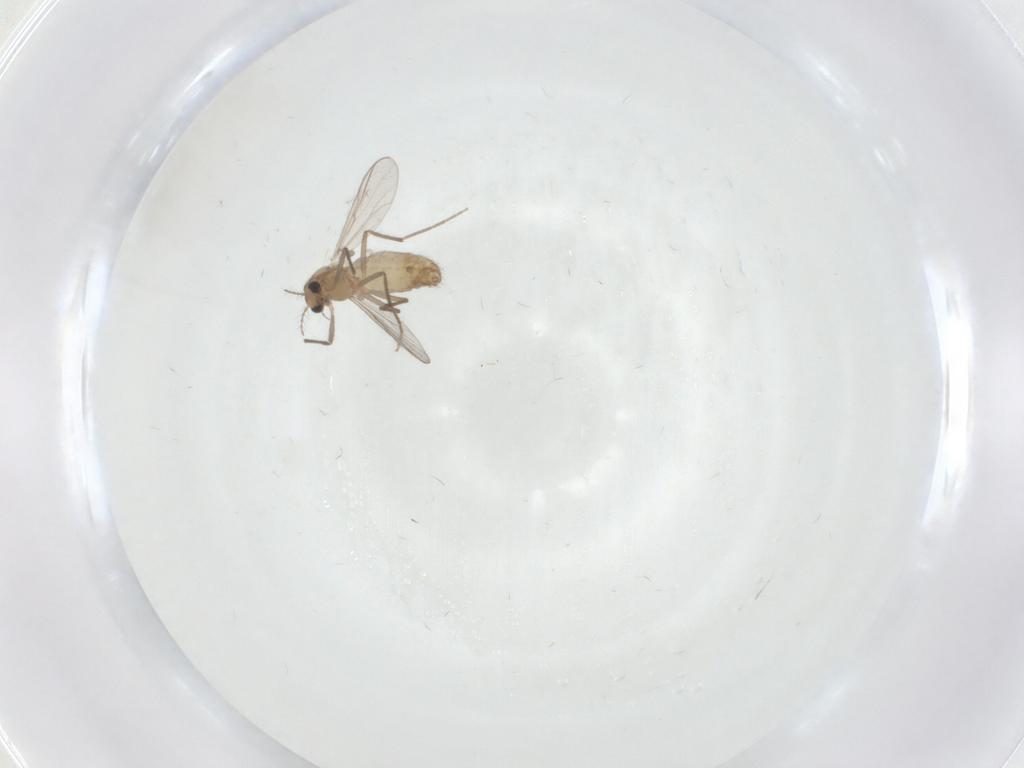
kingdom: Animalia
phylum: Arthropoda
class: Insecta
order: Diptera
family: Chironomidae
